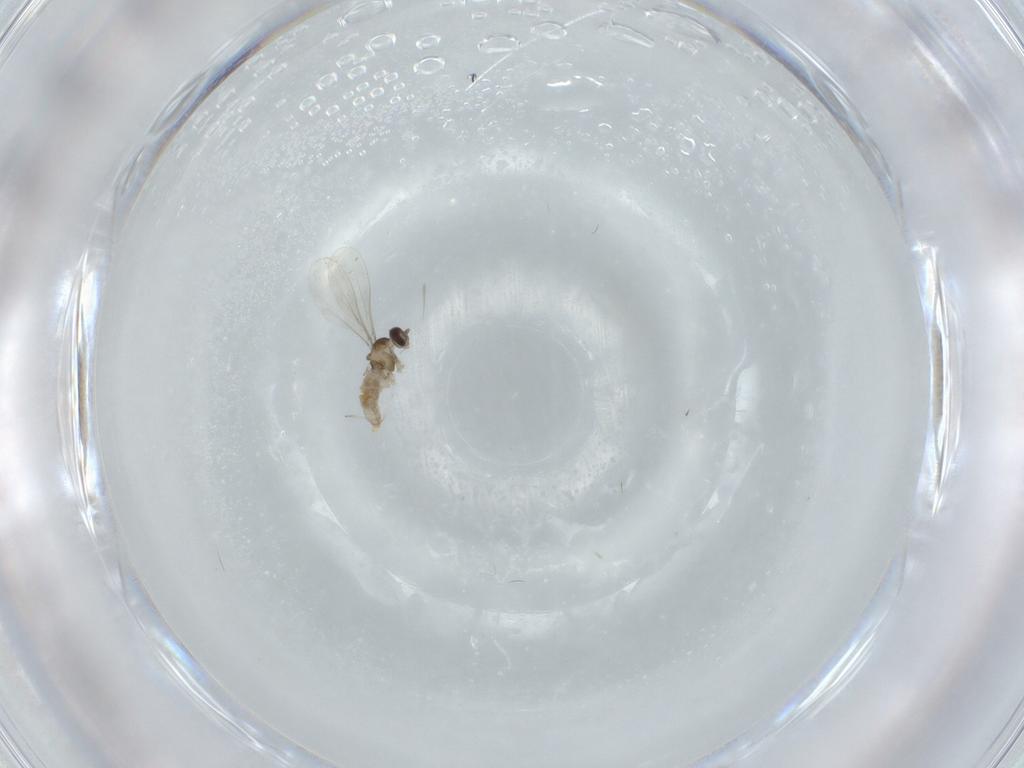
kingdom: Animalia
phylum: Arthropoda
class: Insecta
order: Diptera
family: Cecidomyiidae
